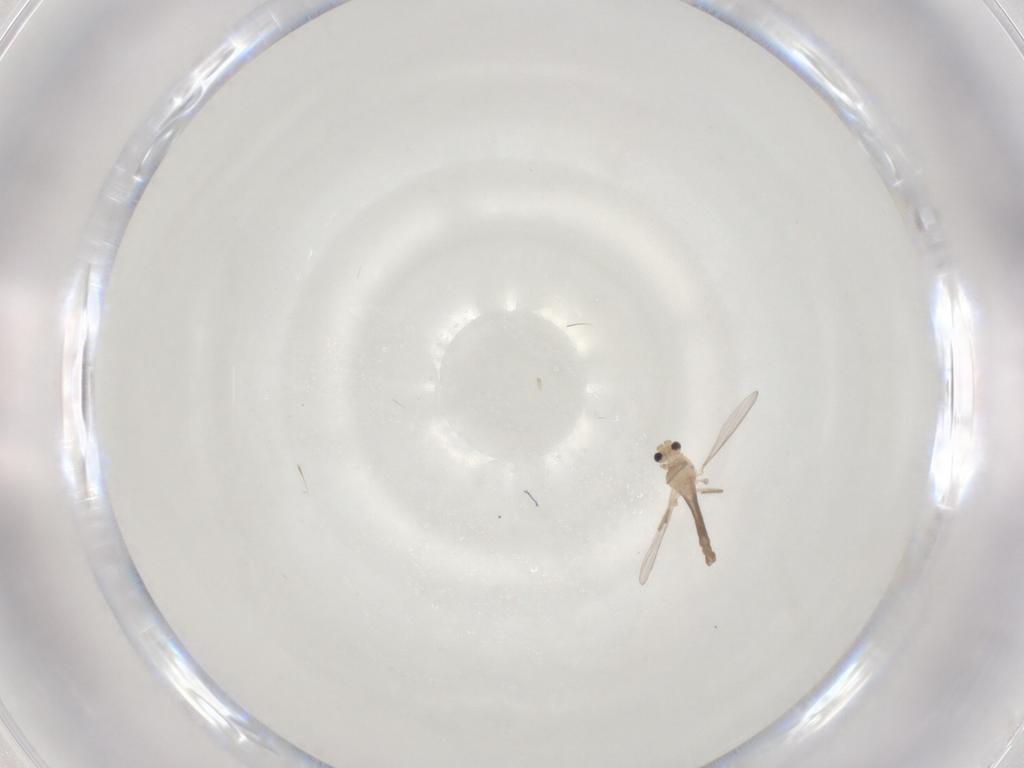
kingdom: Animalia
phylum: Arthropoda
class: Insecta
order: Diptera
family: Chironomidae
